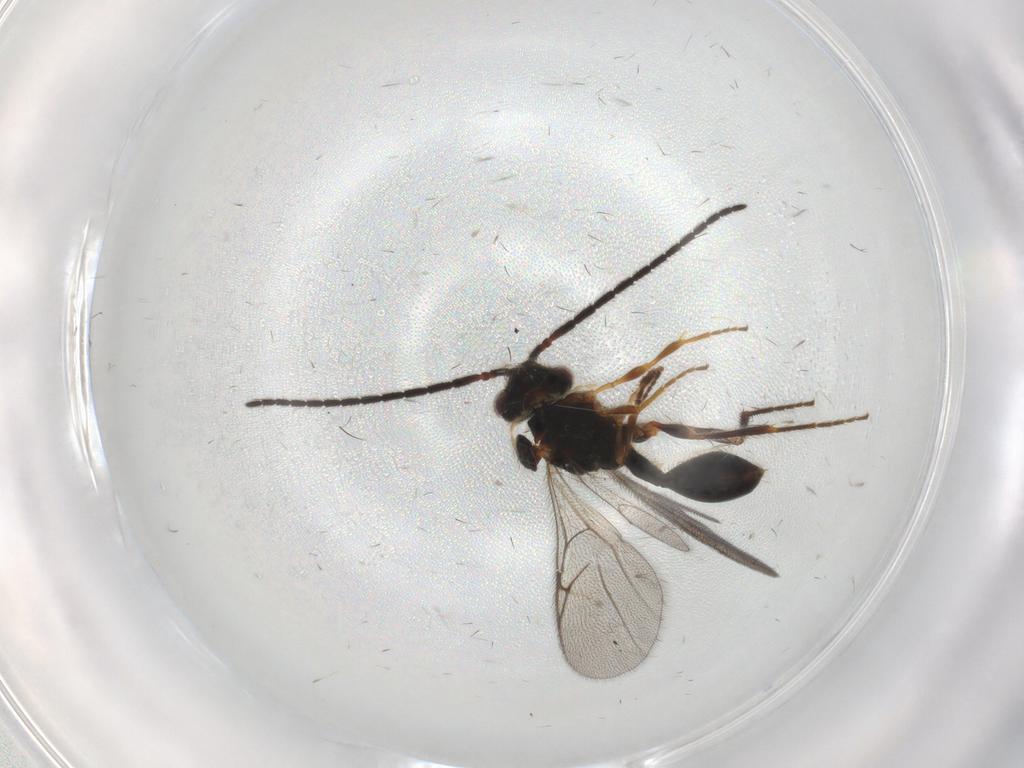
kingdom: Animalia
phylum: Arthropoda
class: Insecta
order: Hymenoptera
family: Diapriidae
